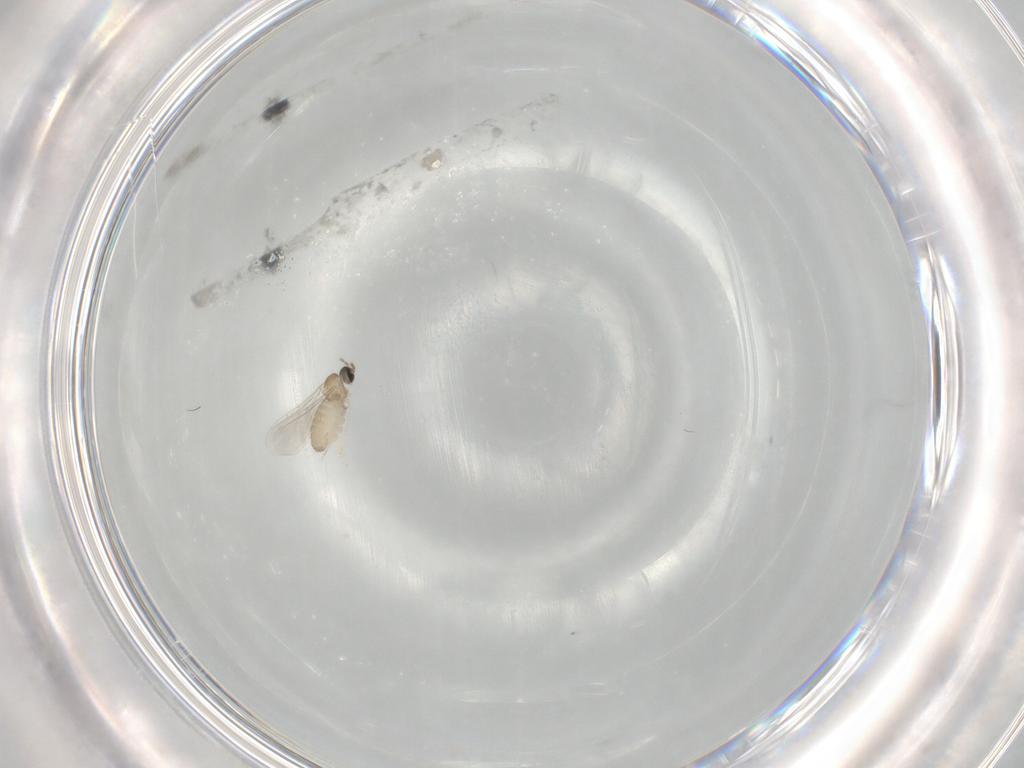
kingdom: Animalia
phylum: Arthropoda
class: Insecta
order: Diptera
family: Cecidomyiidae
